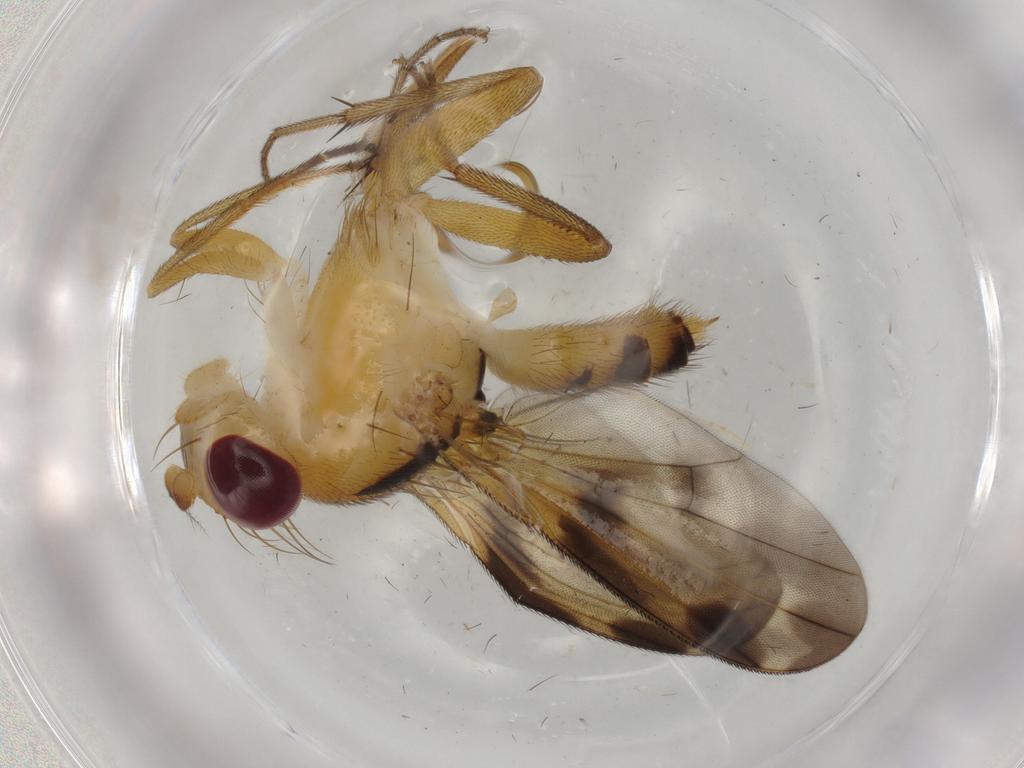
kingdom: Animalia
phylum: Arthropoda
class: Insecta
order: Diptera
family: Clusiidae
